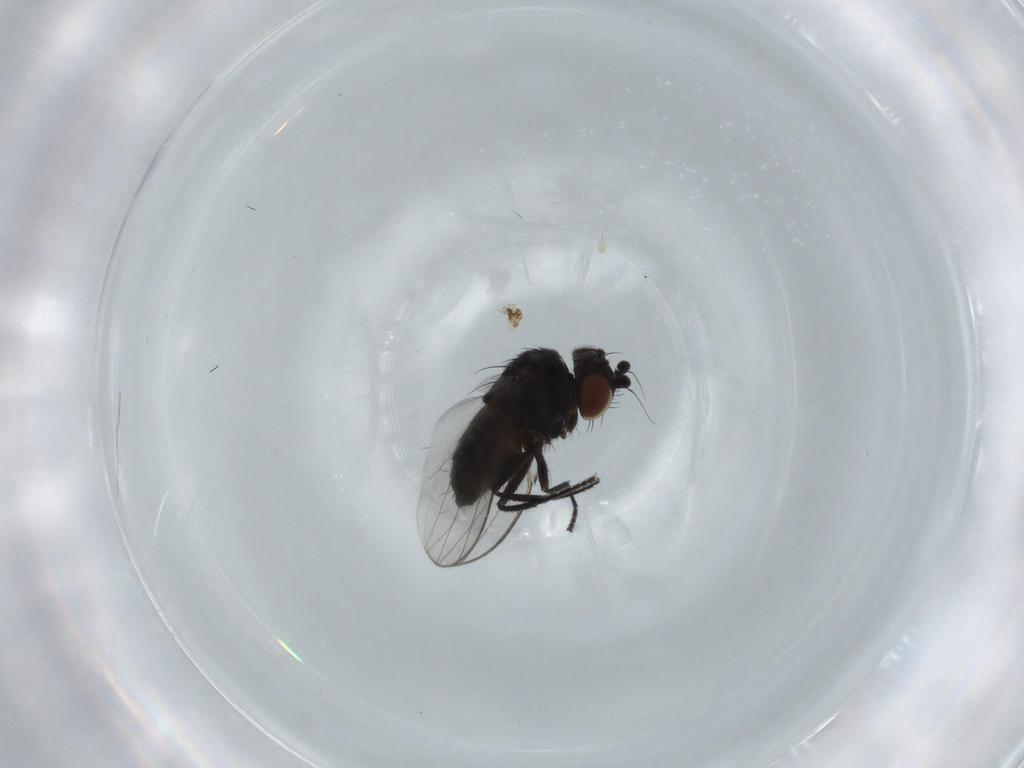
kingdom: Animalia
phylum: Arthropoda
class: Insecta
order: Diptera
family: Milichiidae
